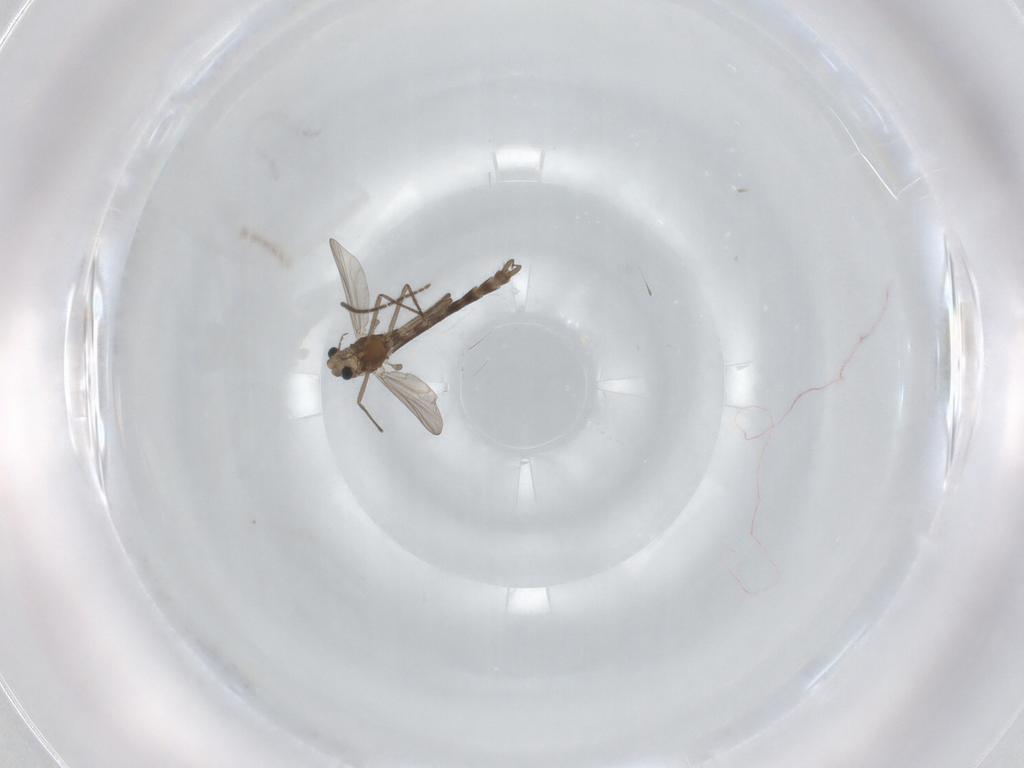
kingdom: Animalia
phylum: Arthropoda
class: Insecta
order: Diptera
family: Chironomidae
